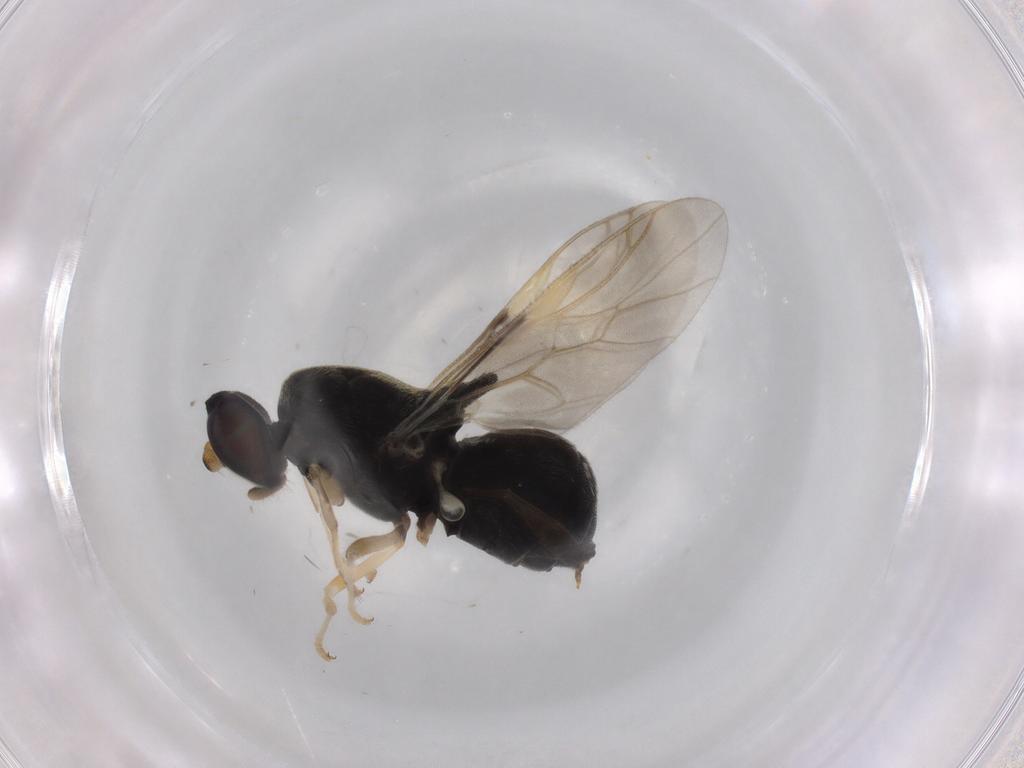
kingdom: Animalia
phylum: Arthropoda
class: Insecta
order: Diptera
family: Stratiomyidae
